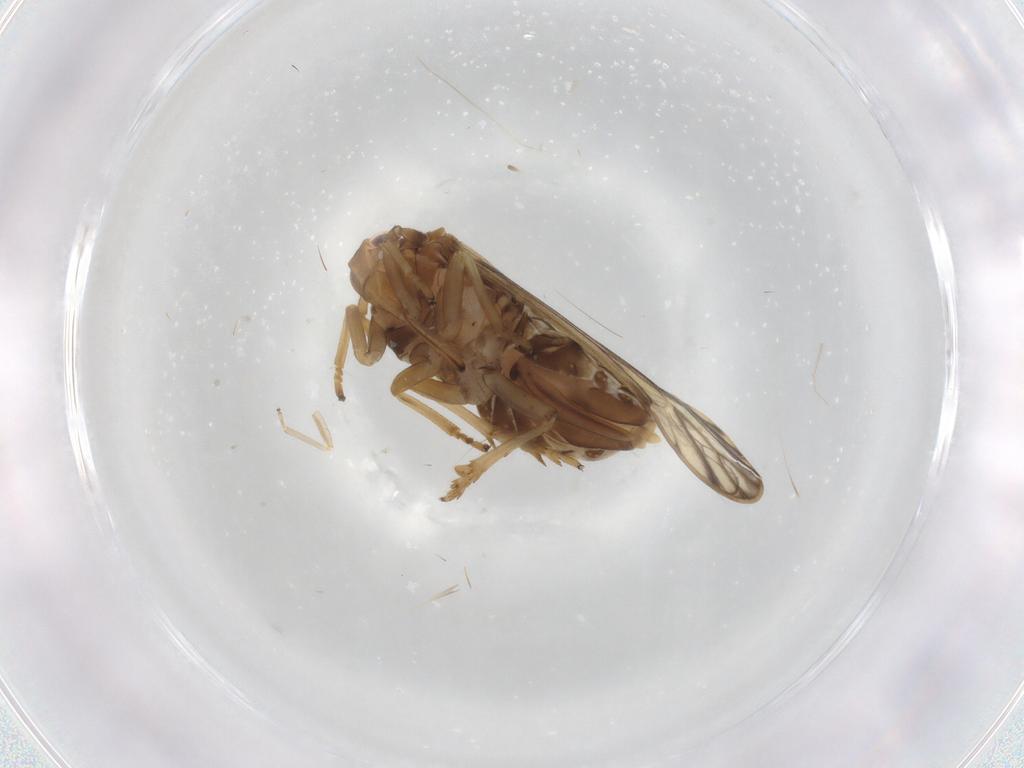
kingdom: Animalia
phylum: Arthropoda
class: Insecta
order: Hemiptera
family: Delphacidae
